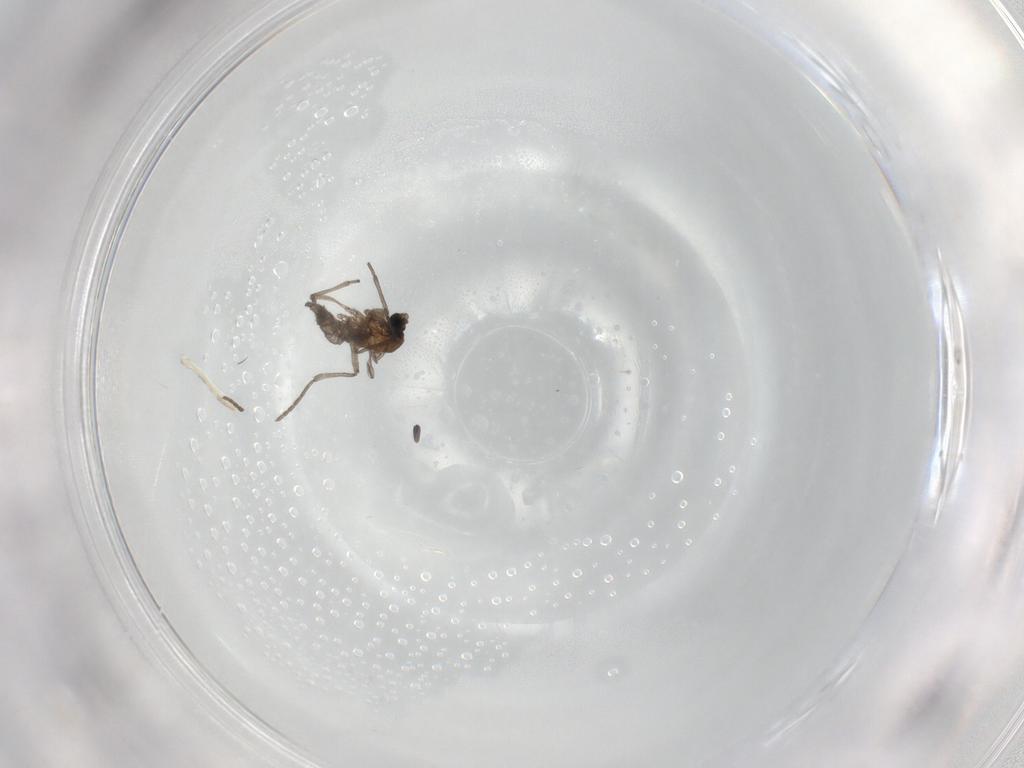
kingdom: Animalia
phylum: Arthropoda
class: Insecta
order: Diptera
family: Sciaridae
